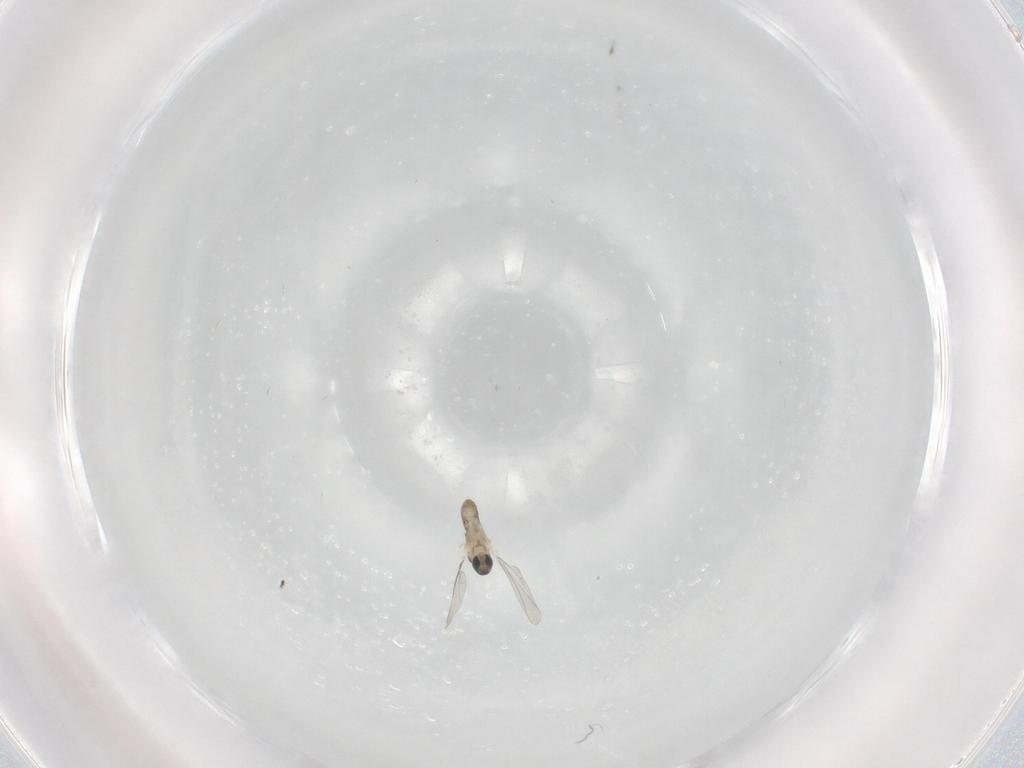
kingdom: Animalia
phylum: Arthropoda
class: Insecta
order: Diptera
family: Cecidomyiidae
